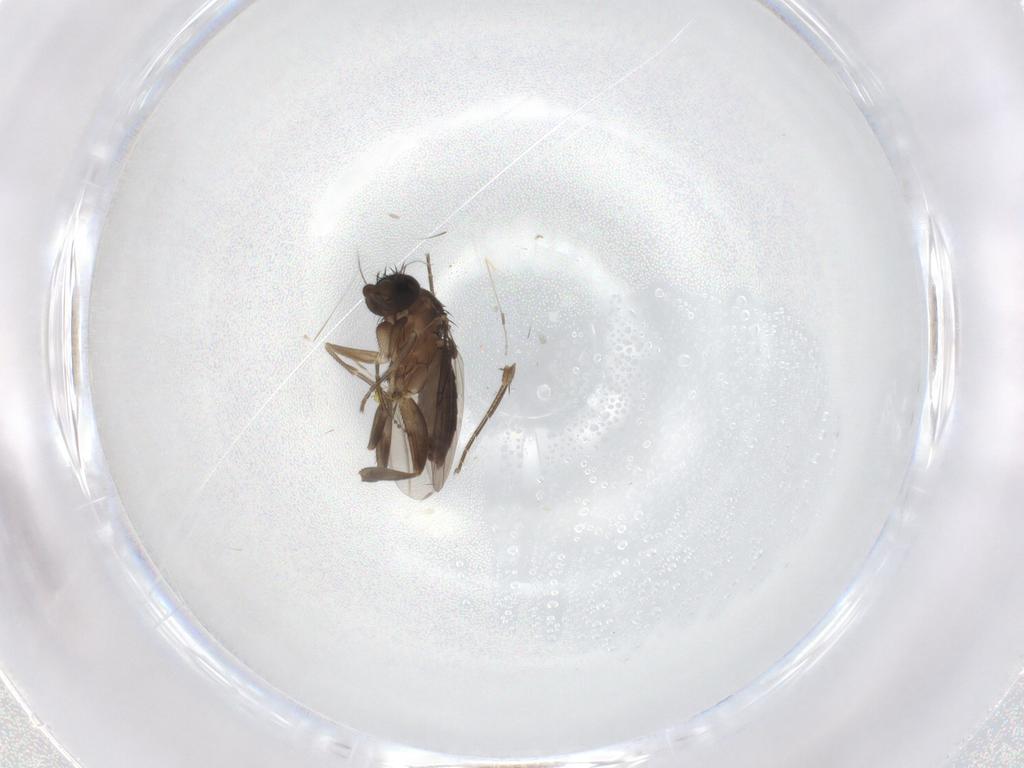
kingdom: Animalia
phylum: Arthropoda
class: Insecta
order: Diptera
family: Phoridae
